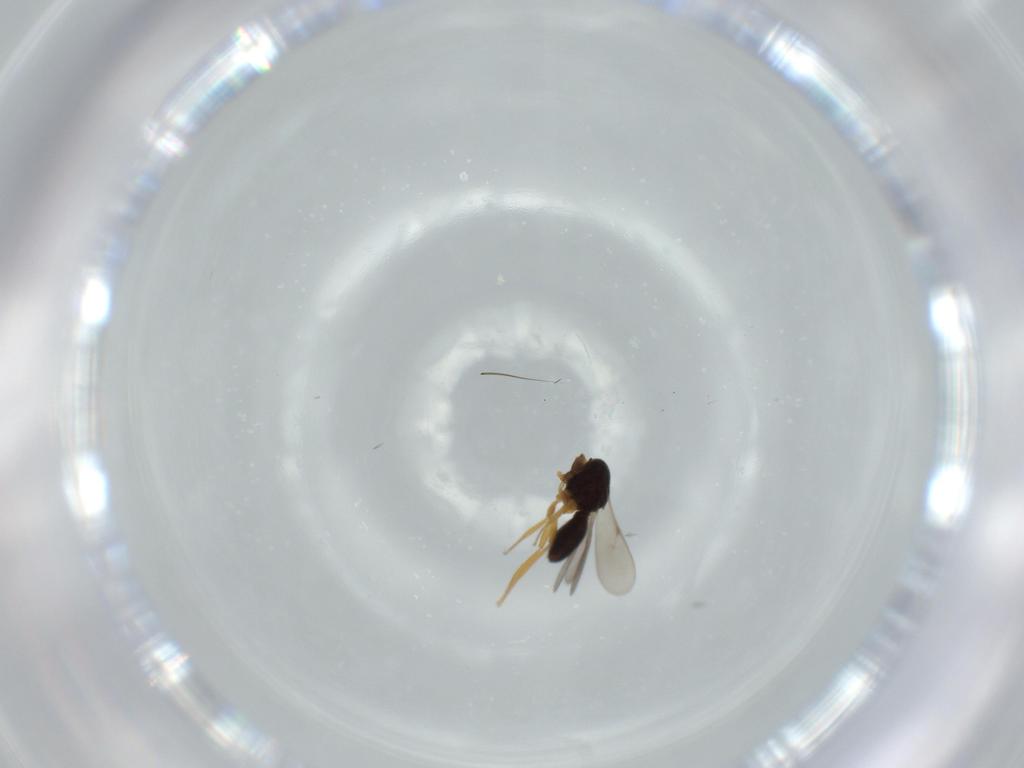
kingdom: Animalia
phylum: Arthropoda
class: Insecta
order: Hymenoptera
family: Scelionidae
